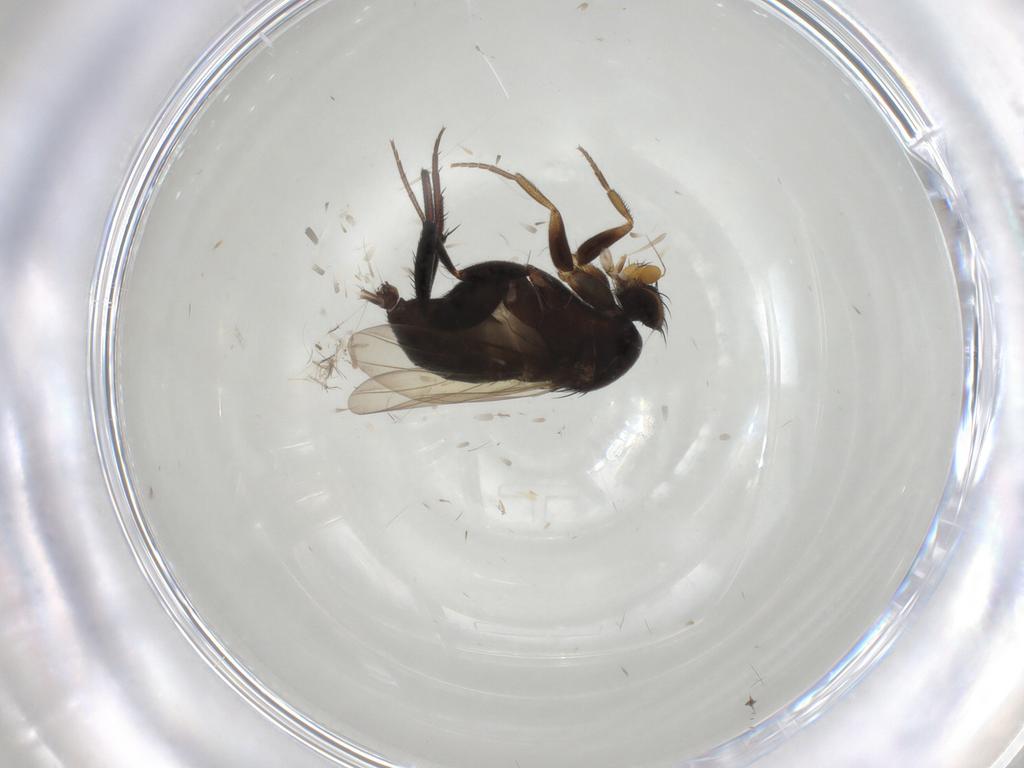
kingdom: Animalia
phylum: Arthropoda
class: Insecta
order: Diptera
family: Phoridae
